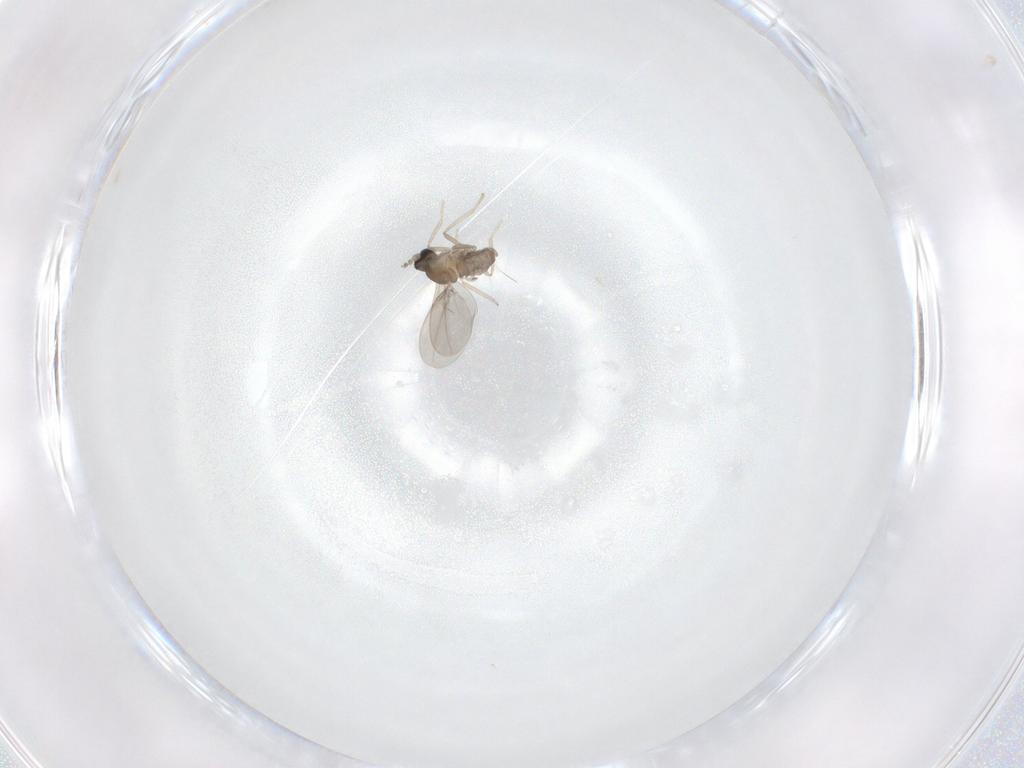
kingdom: Animalia
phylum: Arthropoda
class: Insecta
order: Diptera
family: Cecidomyiidae
